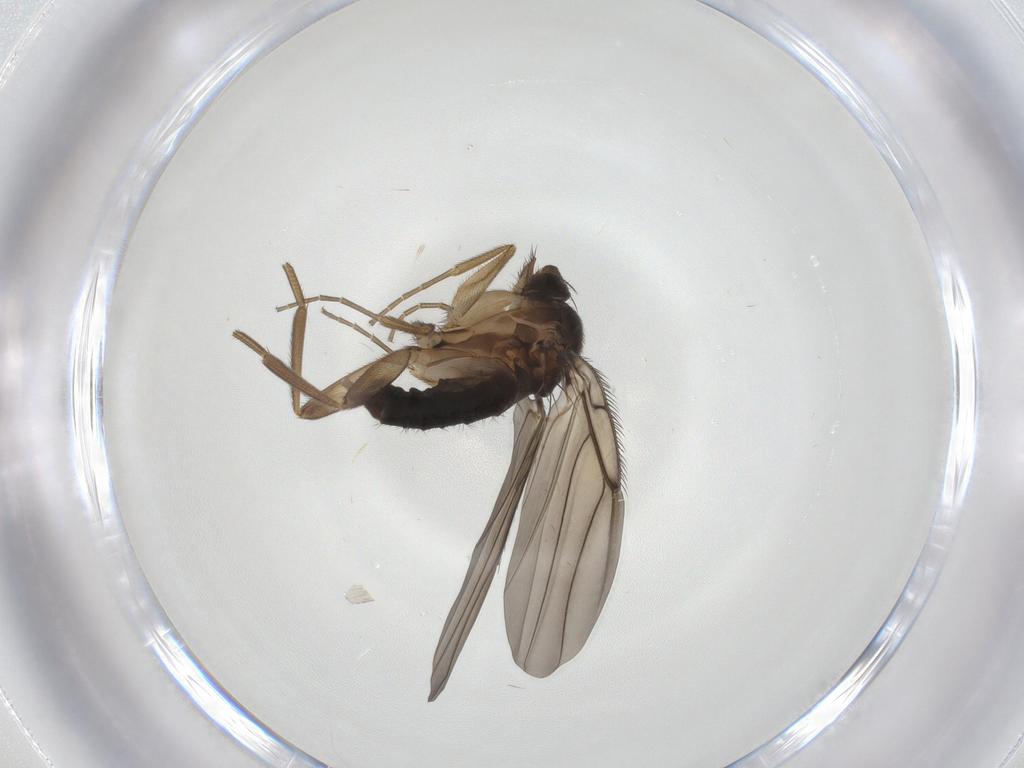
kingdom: Animalia
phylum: Arthropoda
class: Insecta
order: Diptera
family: Phoridae
